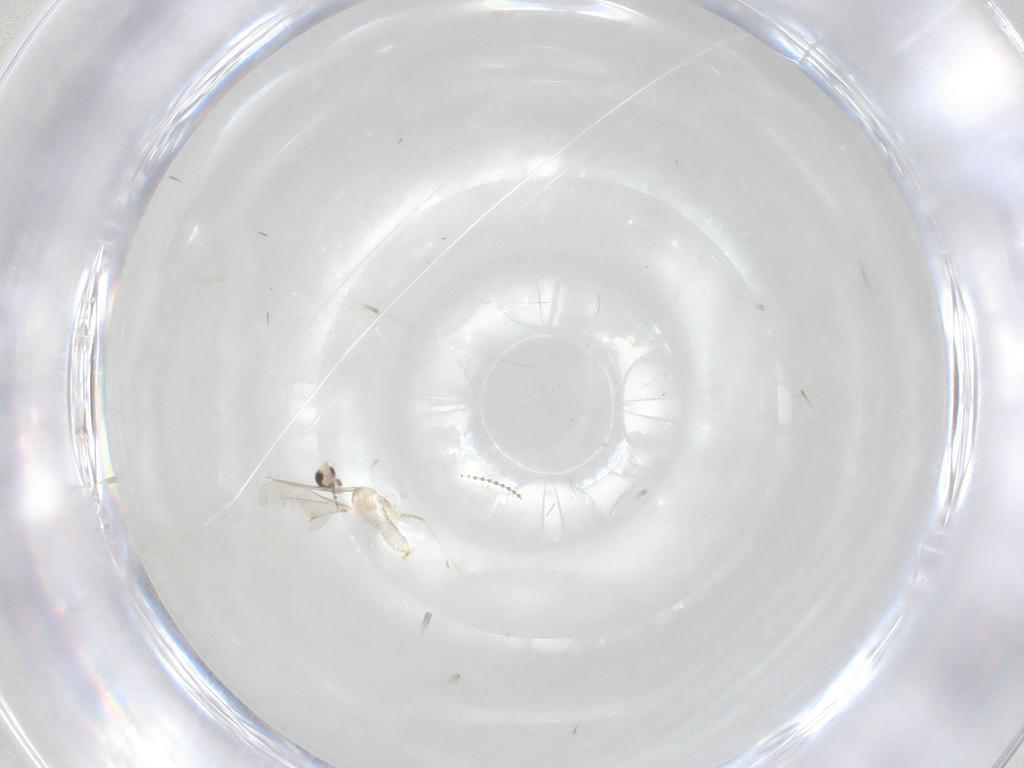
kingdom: Animalia
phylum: Arthropoda
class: Insecta
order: Diptera
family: Cecidomyiidae
